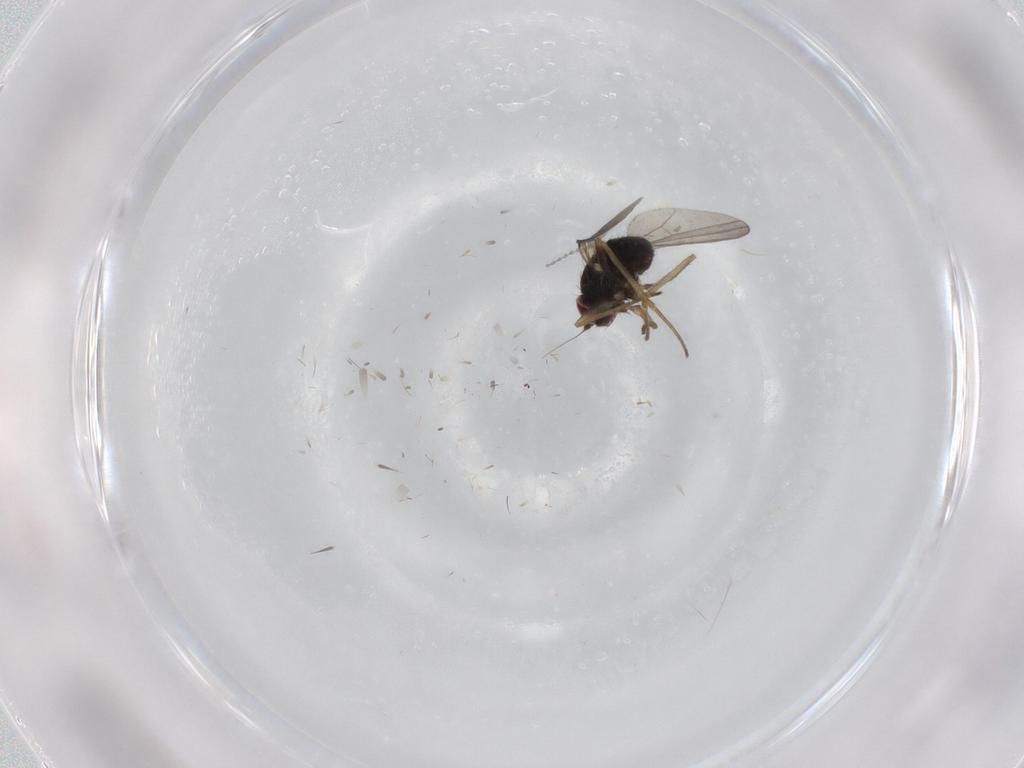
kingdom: Animalia
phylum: Arthropoda
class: Insecta
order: Diptera
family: Dolichopodidae
